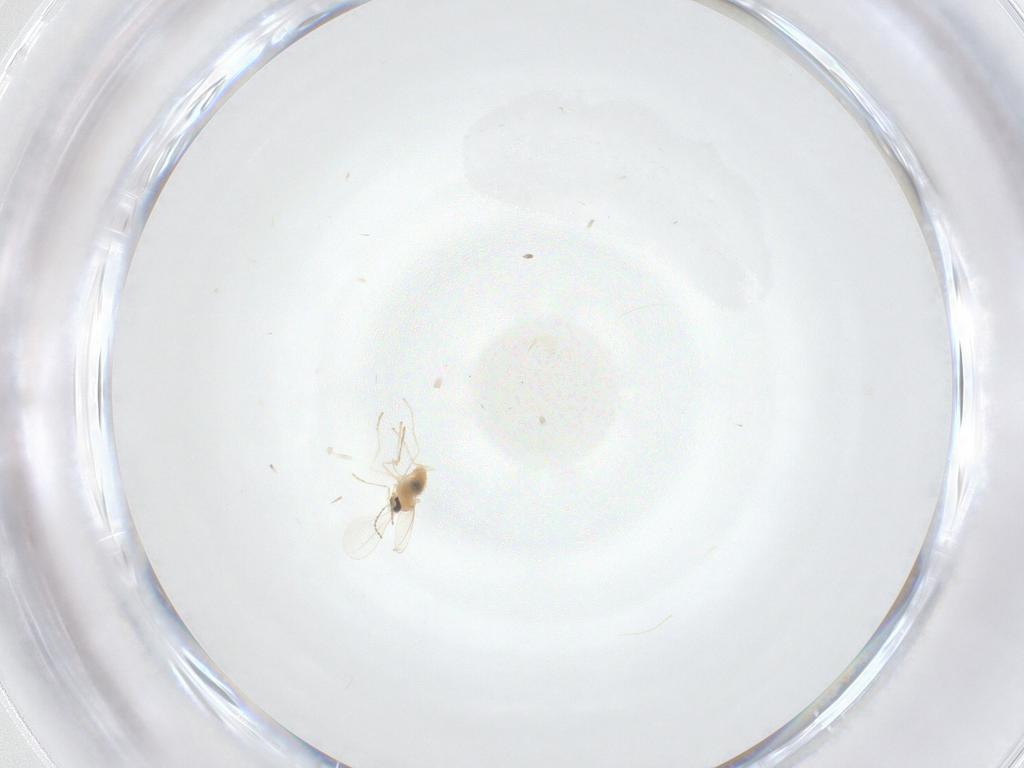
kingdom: Animalia
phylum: Arthropoda
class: Insecta
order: Diptera
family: Cecidomyiidae
